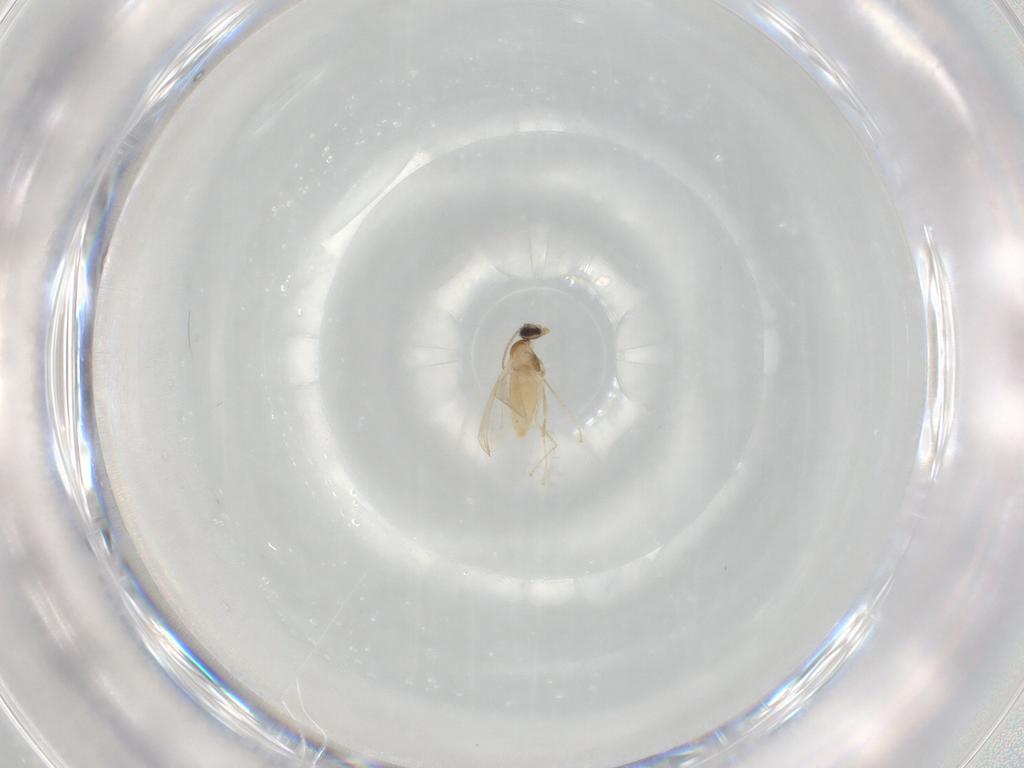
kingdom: Animalia
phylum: Arthropoda
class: Insecta
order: Diptera
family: Cecidomyiidae
